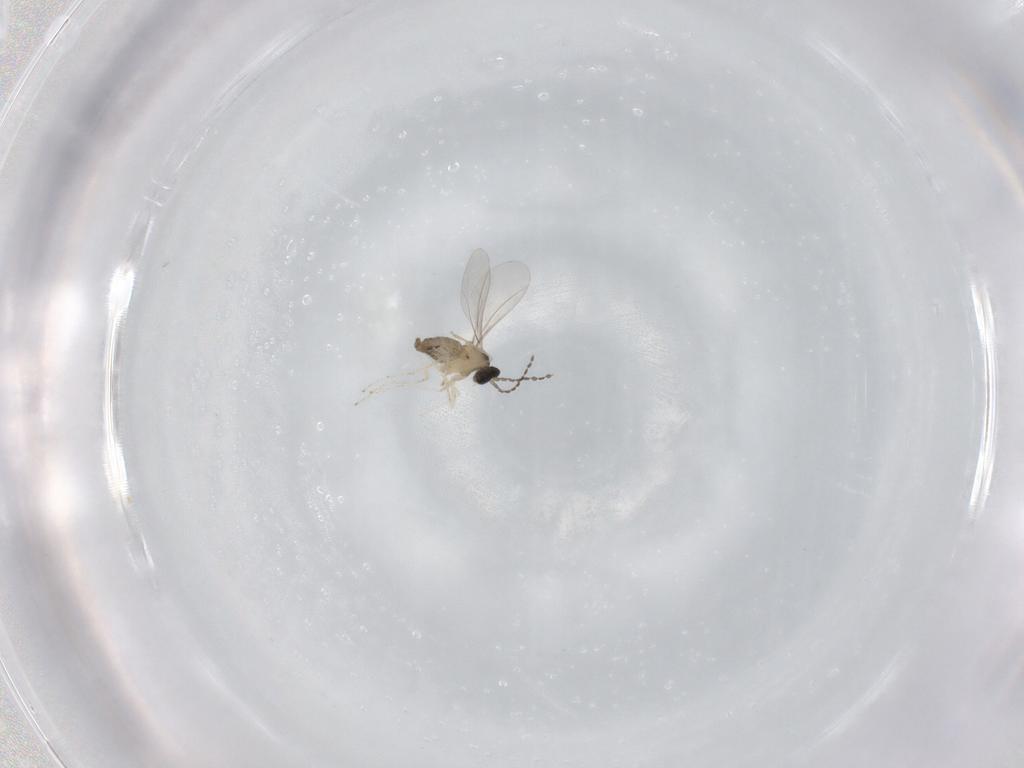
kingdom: Animalia
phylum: Arthropoda
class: Insecta
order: Diptera
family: Cecidomyiidae
